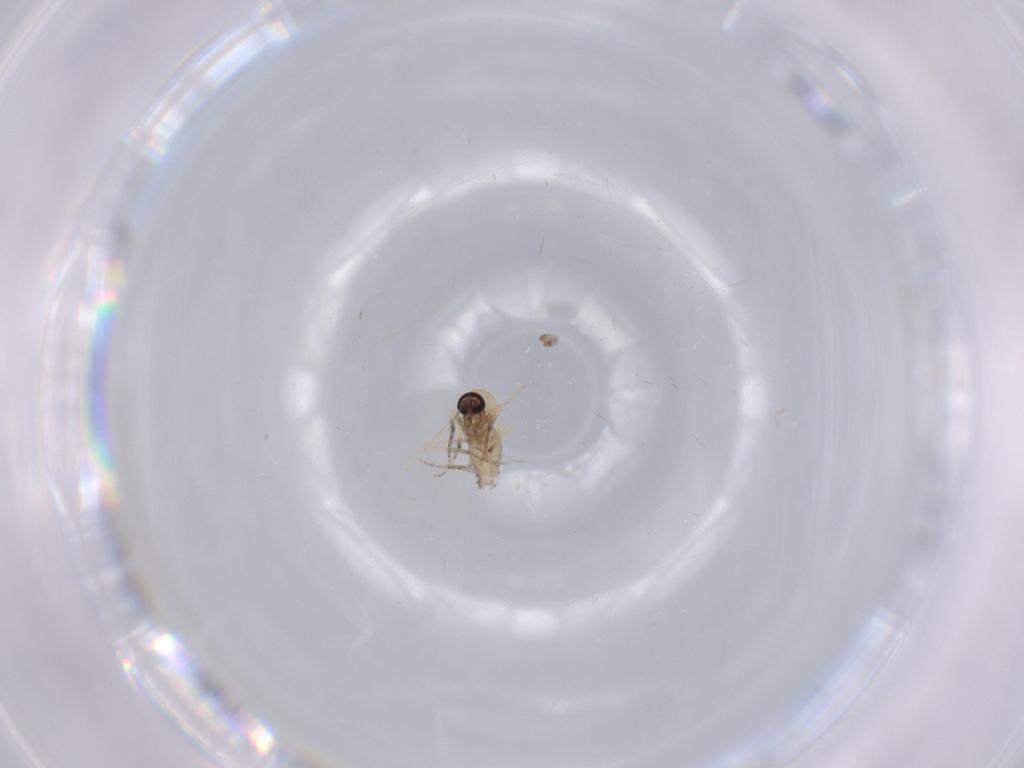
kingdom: Animalia
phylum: Arthropoda
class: Insecta
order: Diptera
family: Ceratopogonidae
